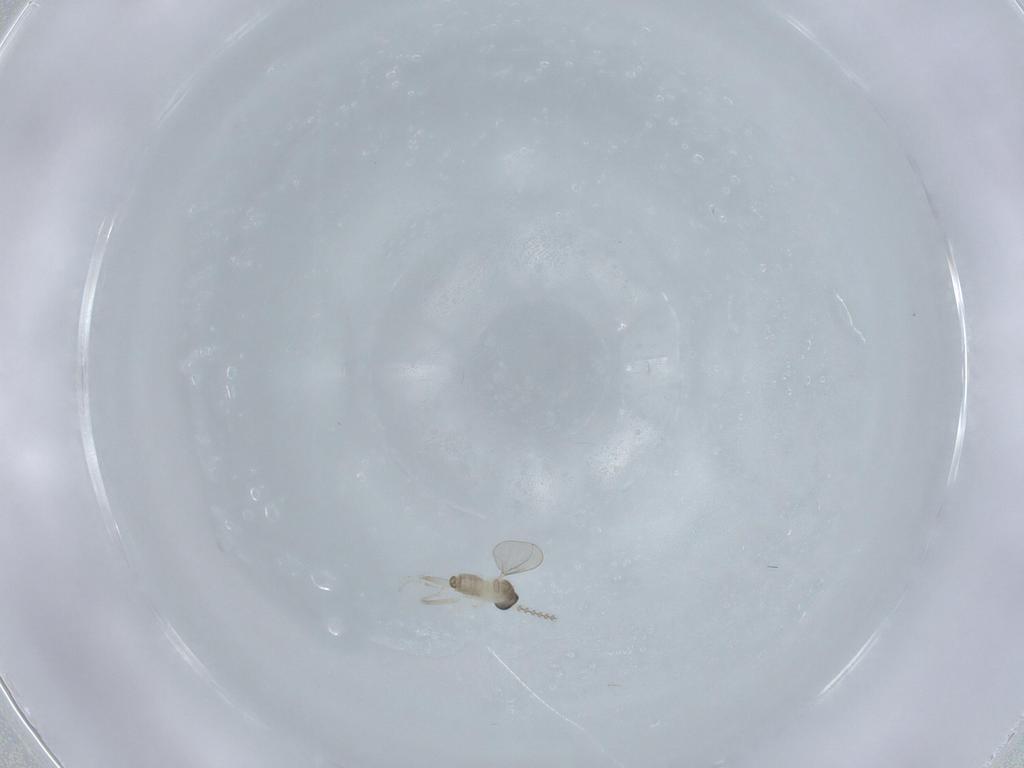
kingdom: Animalia
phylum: Arthropoda
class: Insecta
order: Diptera
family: Cecidomyiidae
